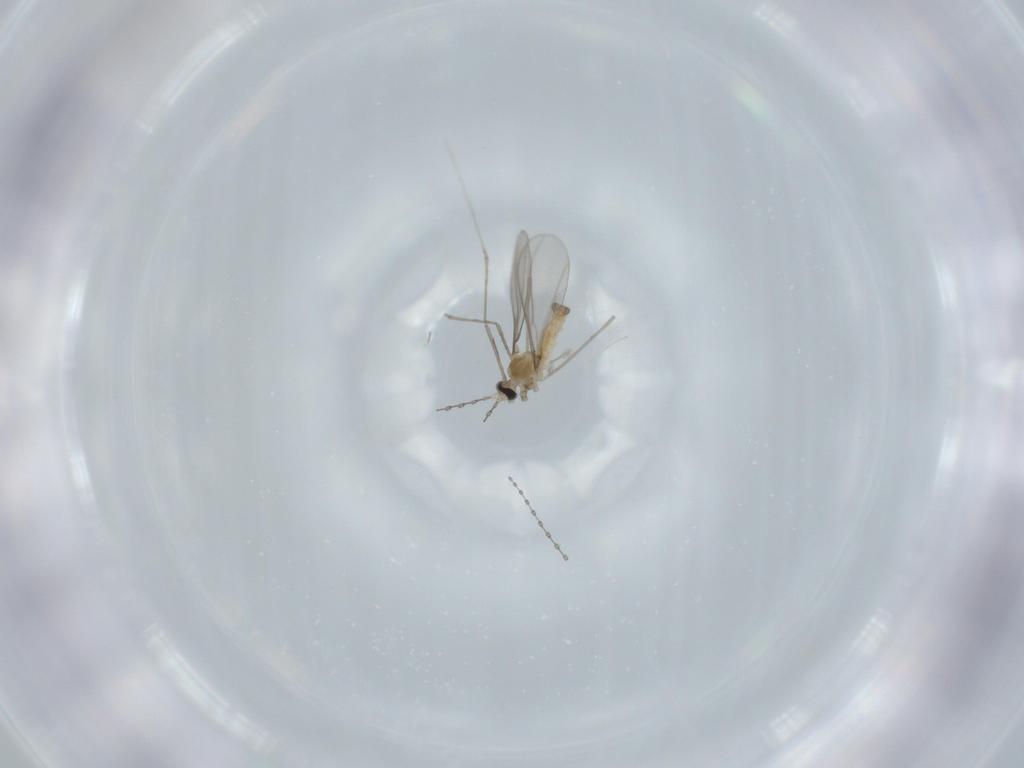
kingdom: Animalia
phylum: Arthropoda
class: Insecta
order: Diptera
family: Cecidomyiidae
